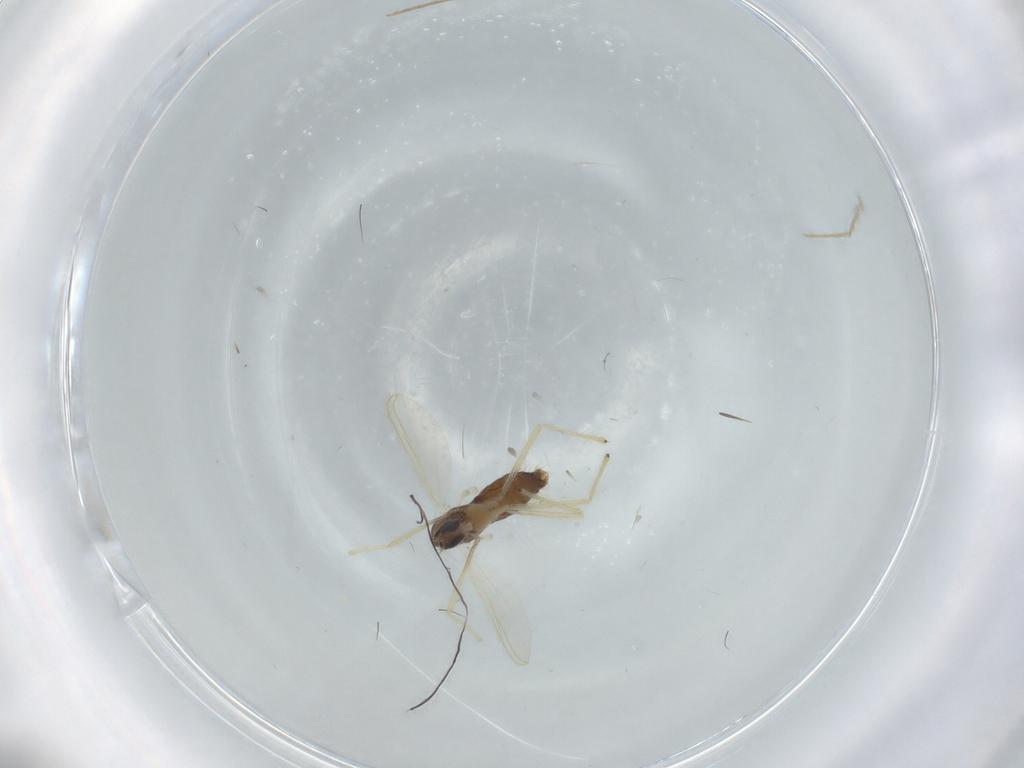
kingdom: Animalia
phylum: Arthropoda
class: Insecta
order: Diptera
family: Chironomidae
